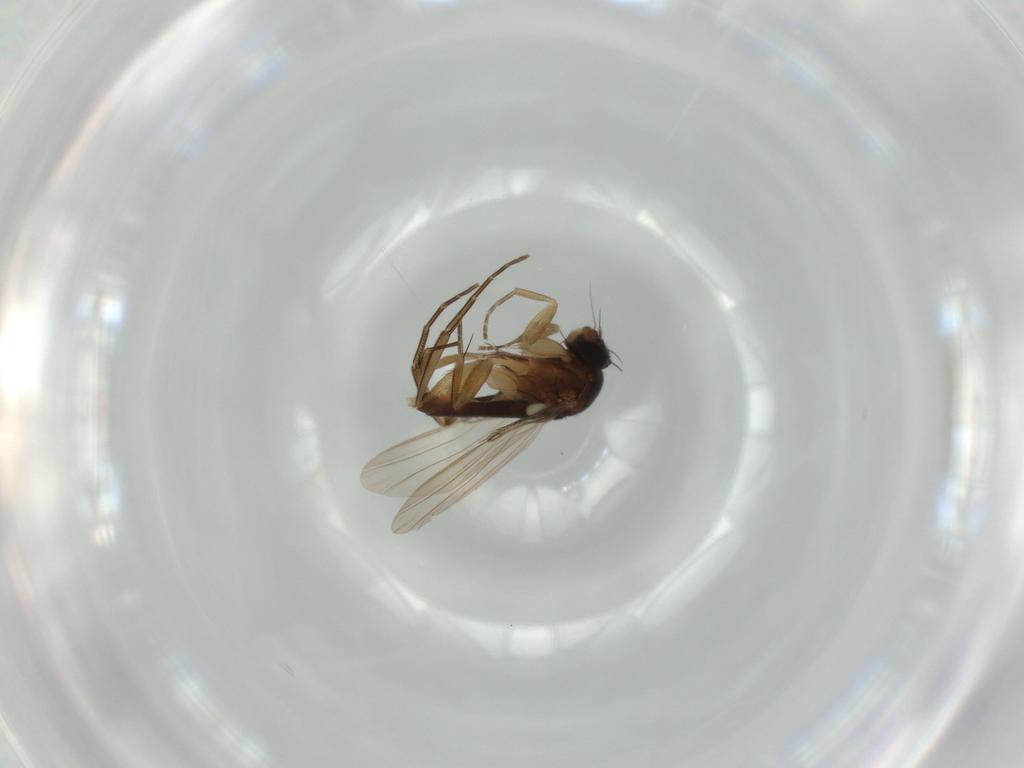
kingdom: Animalia
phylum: Arthropoda
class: Insecta
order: Diptera
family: Phoridae
